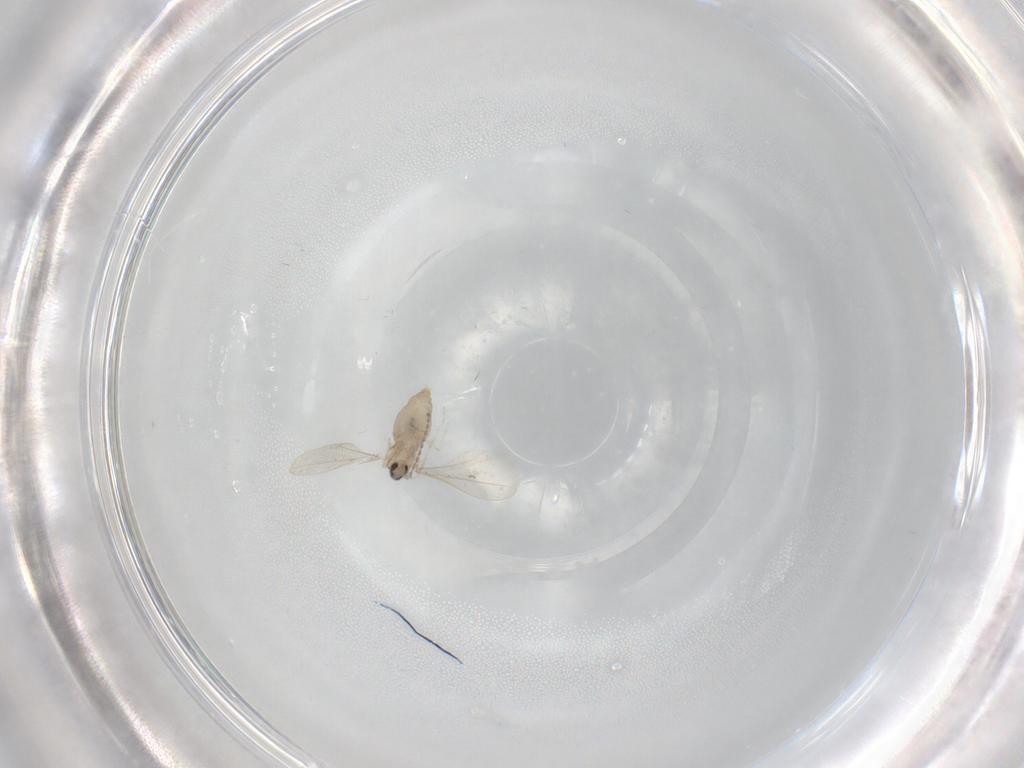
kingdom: Animalia
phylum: Arthropoda
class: Insecta
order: Diptera
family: Cecidomyiidae
